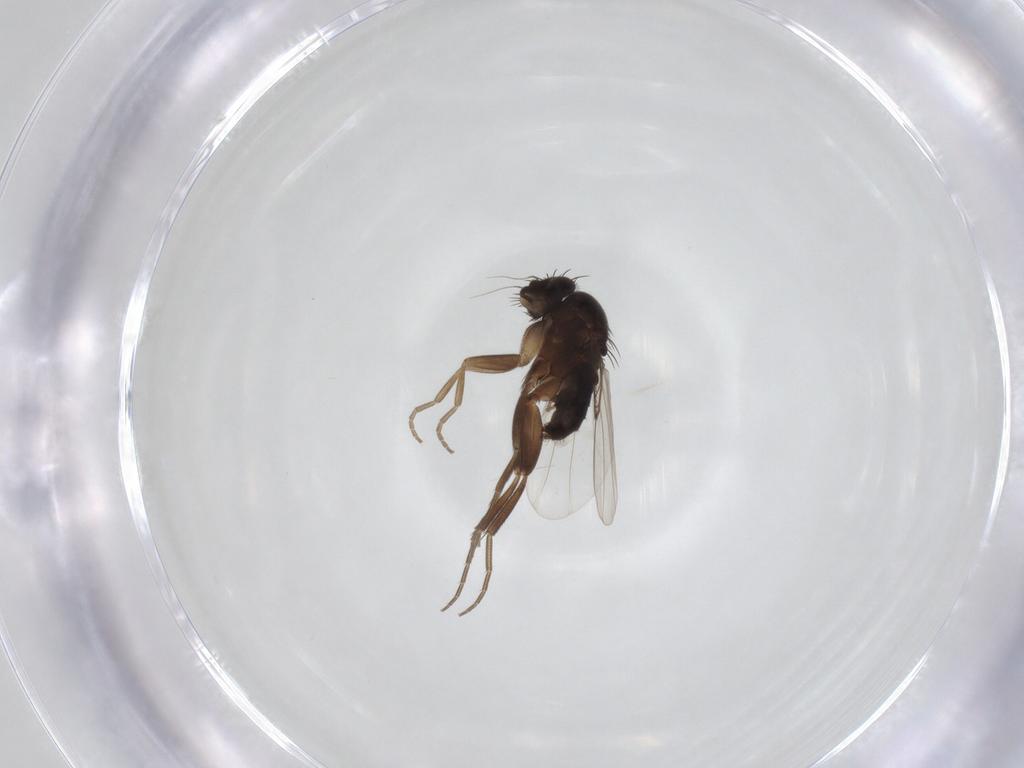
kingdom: Animalia
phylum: Arthropoda
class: Insecta
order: Diptera
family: Phoridae
